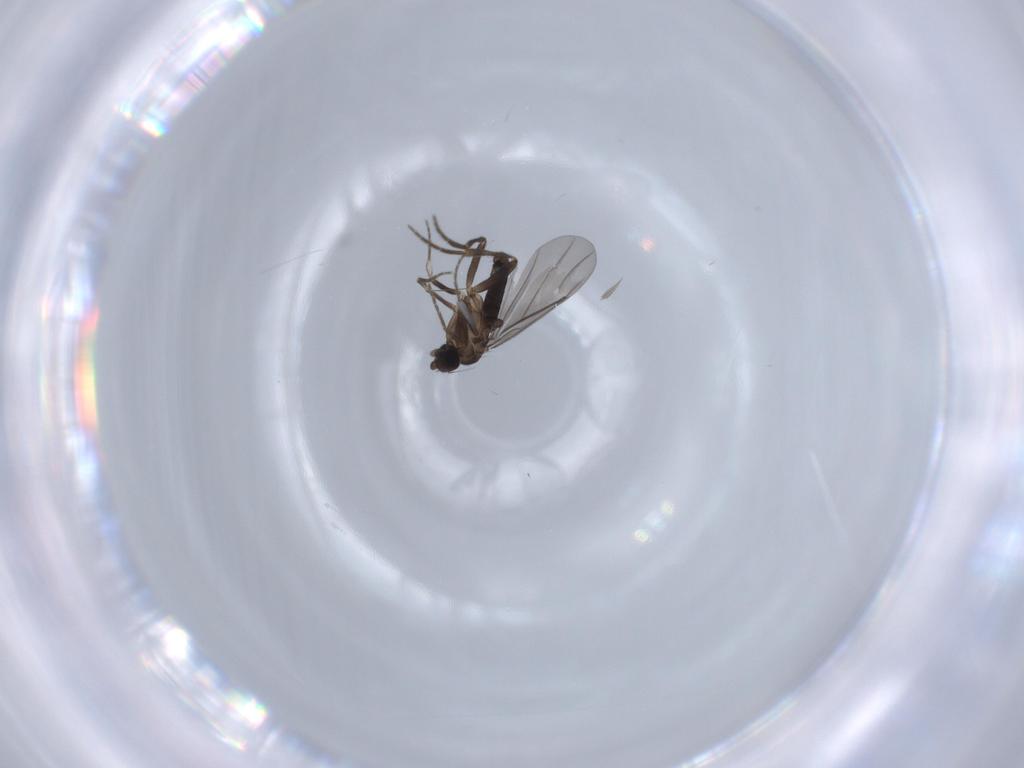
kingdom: Animalia
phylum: Arthropoda
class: Insecta
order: Diptera
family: Phoridae
